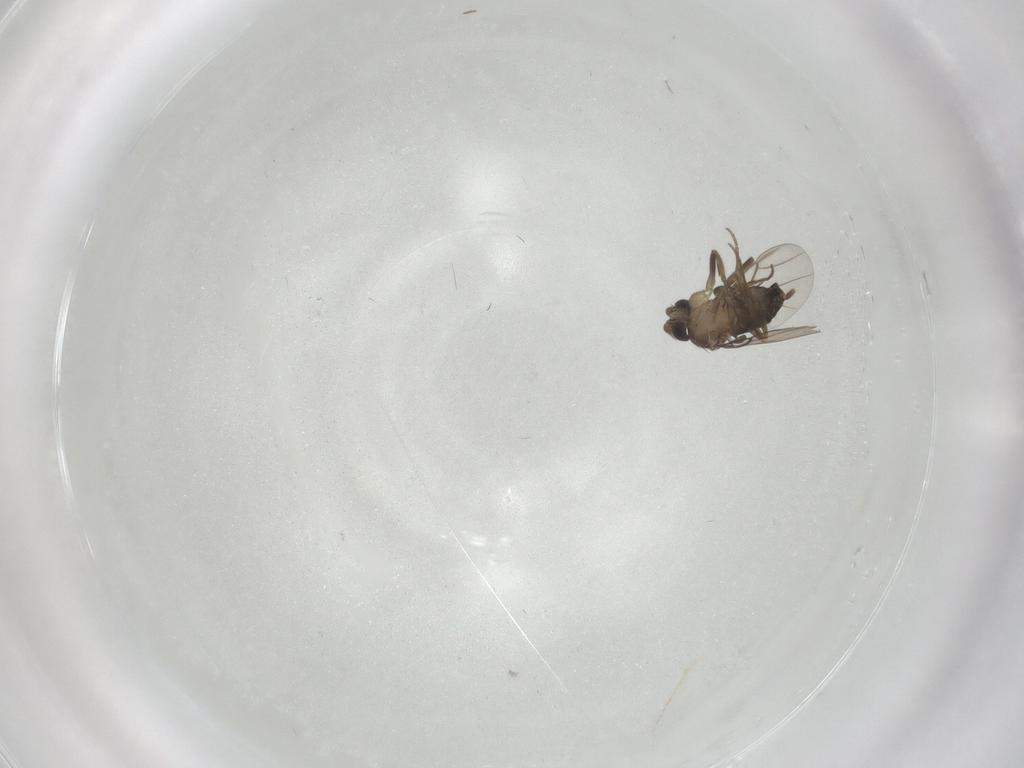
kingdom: Animalia
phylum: Arthropoda
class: Insecta
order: Diptera
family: Phoridae
